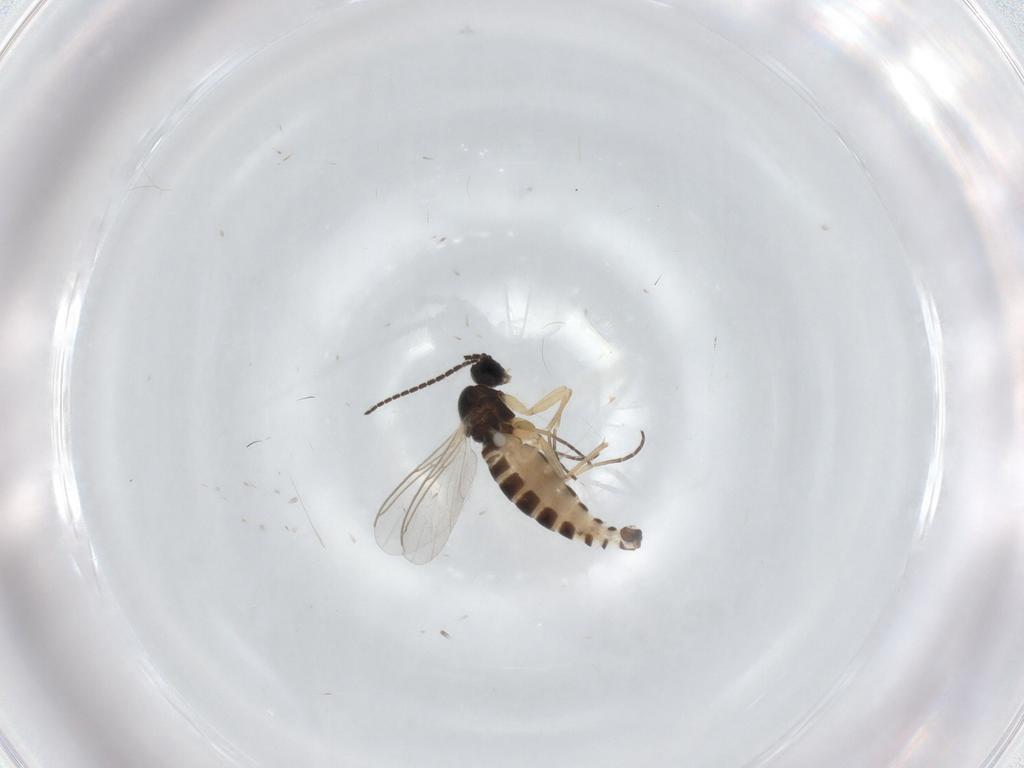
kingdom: Animalia
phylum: Arthropoda
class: Insecta
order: Diptera
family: Sciaridae
